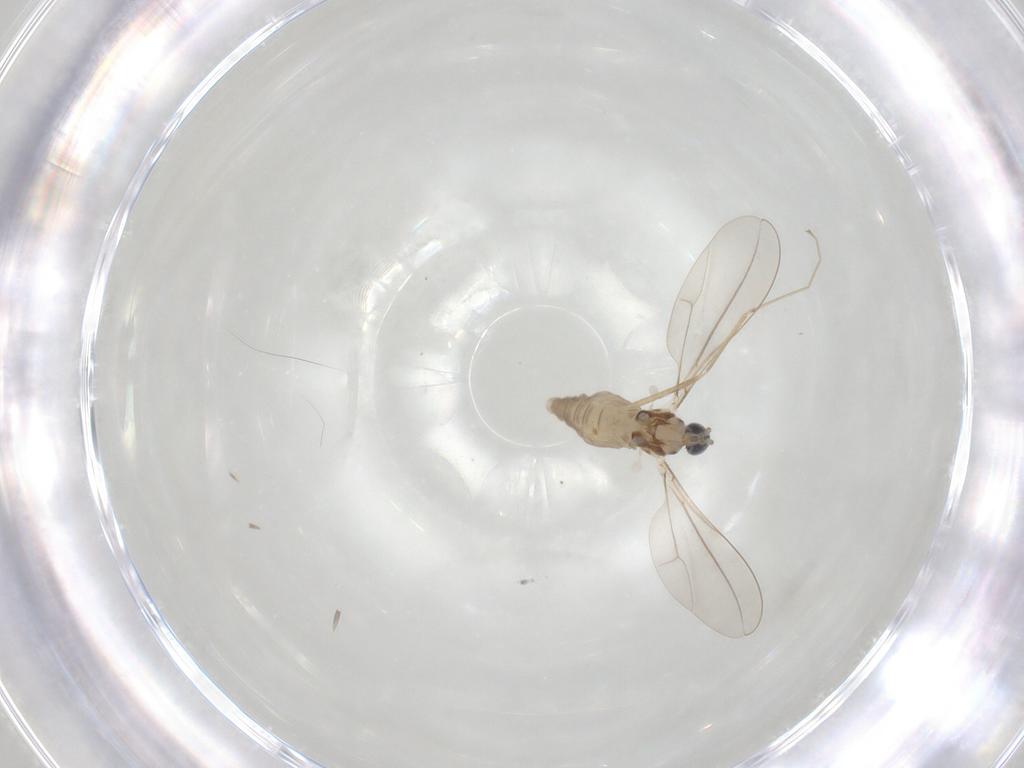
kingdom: Animalia
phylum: Arthropoda
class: Insecta
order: Diptera
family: Cecidomyiidae
